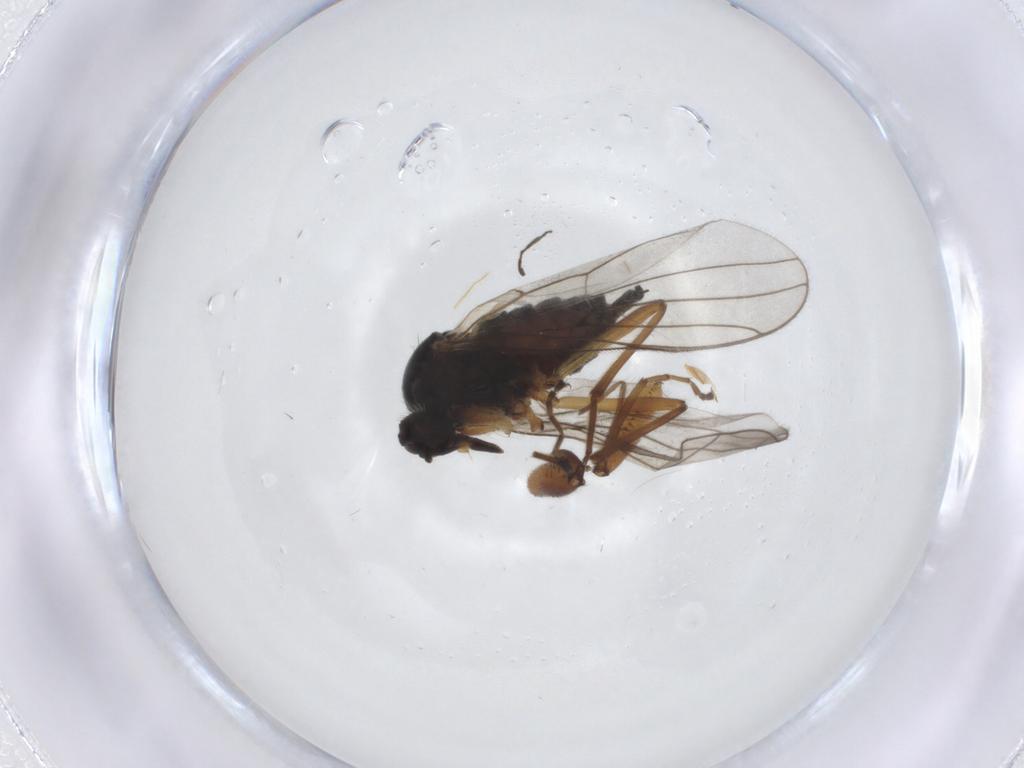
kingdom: Animalia
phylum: Arthropoda
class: Insecta
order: Diptera
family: Hybotidae
